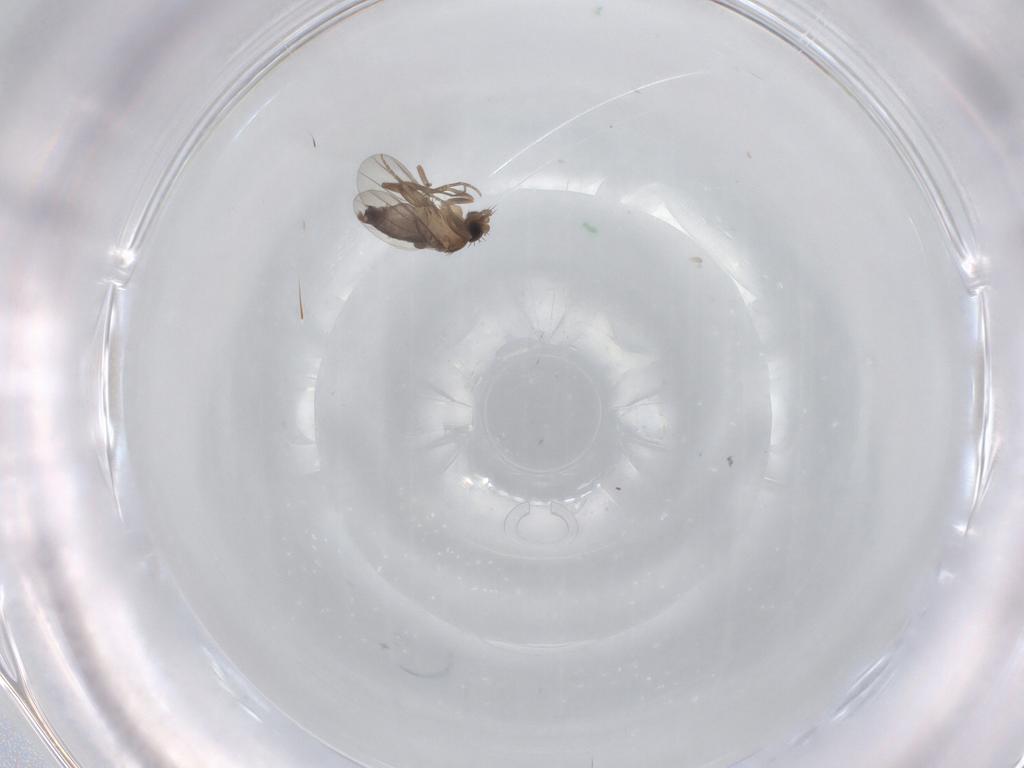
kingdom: Animalia
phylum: Arthropoda
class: Insecta
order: Diptera
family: Phoridae
